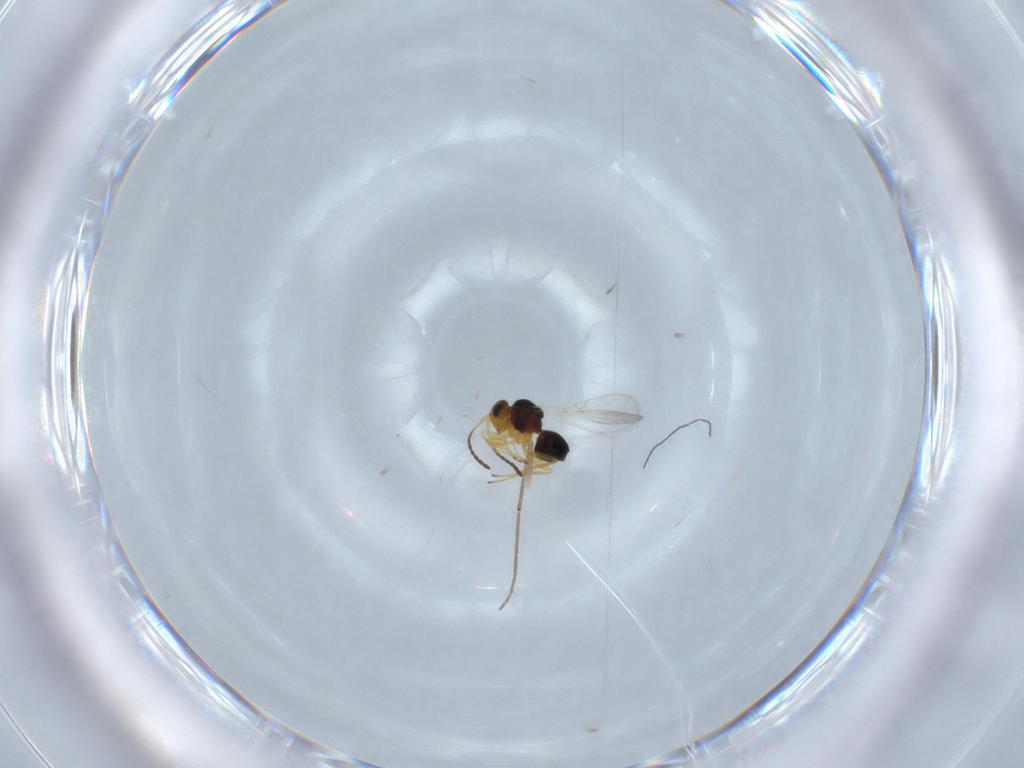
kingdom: Animalia
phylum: Arthropoda
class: Insecta
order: Hymenoptera
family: Figitidae
